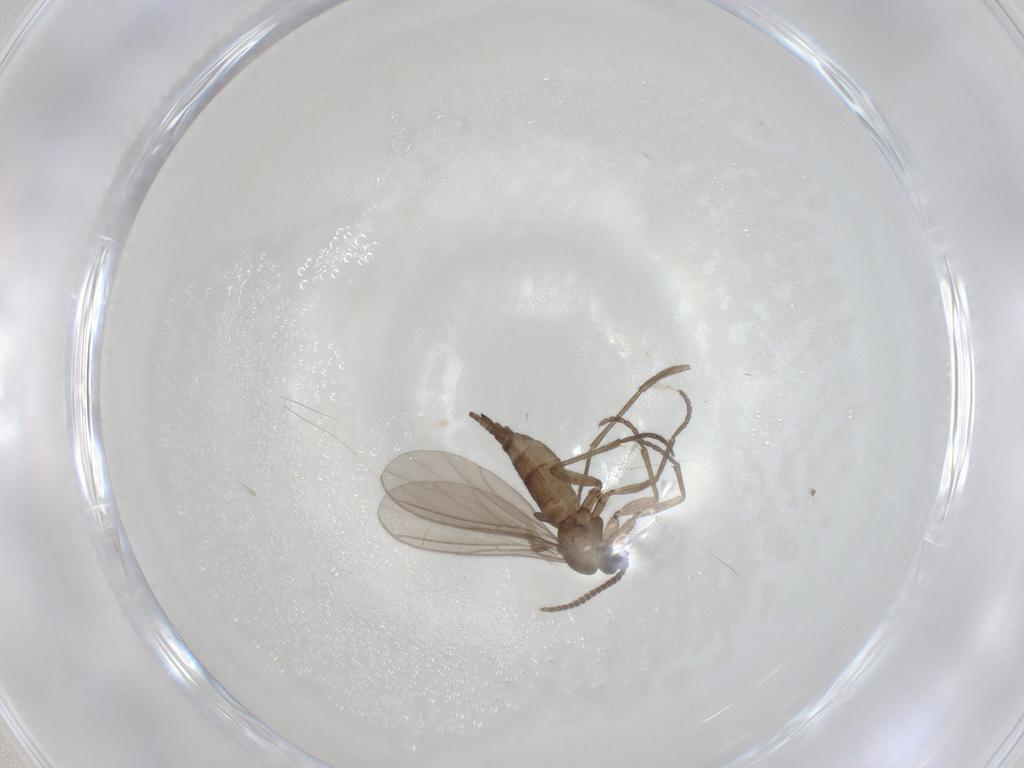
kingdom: Animalia
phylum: Arthropoda
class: Insecta
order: Diptera
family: Sciaridae
